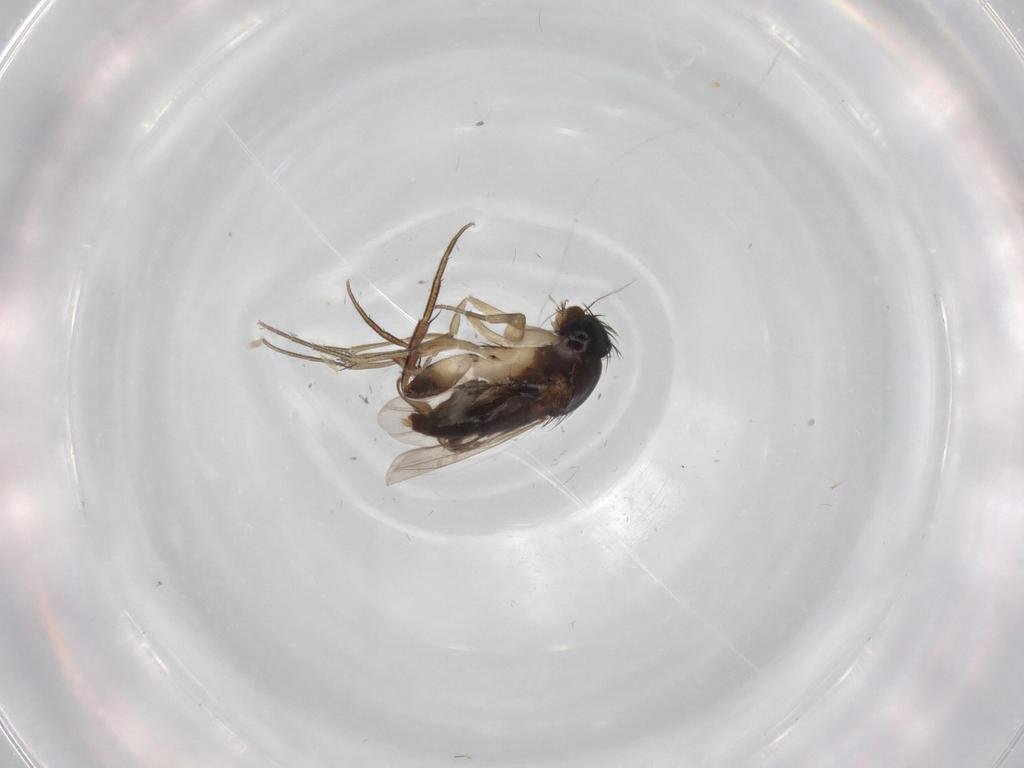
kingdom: Animalia
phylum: Arthropoda
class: Insecta
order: Diptera
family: Phoridae
